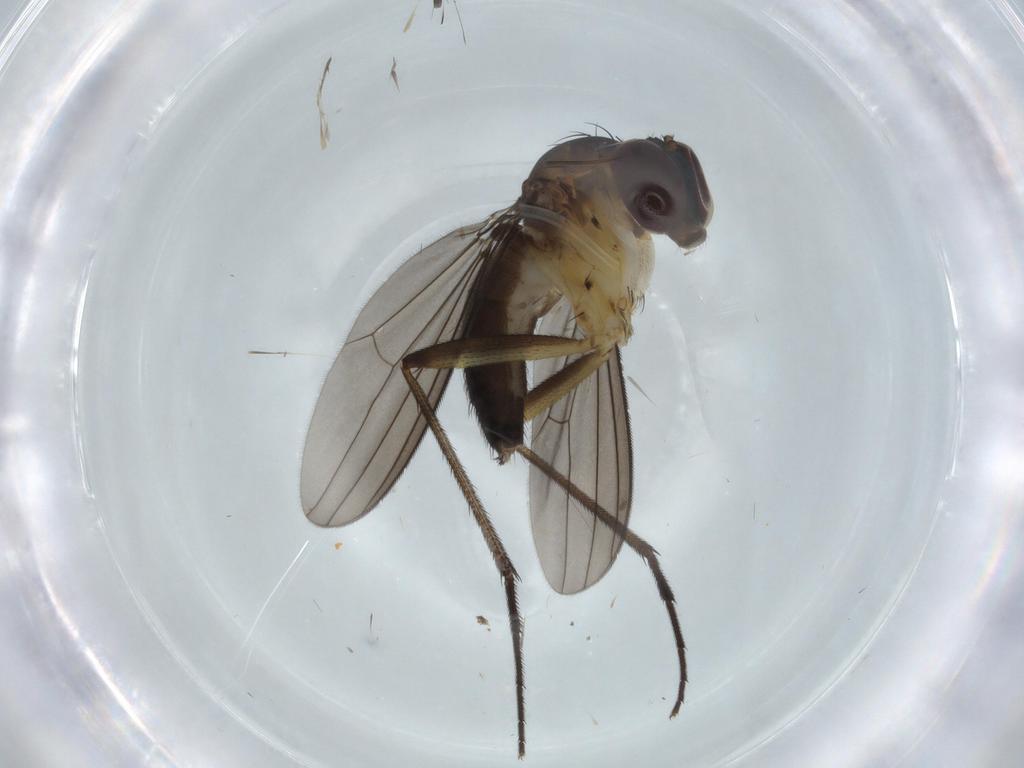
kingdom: Animalia
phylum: Arthropoda
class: Insecta
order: Diptera
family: Dolichopodidae
